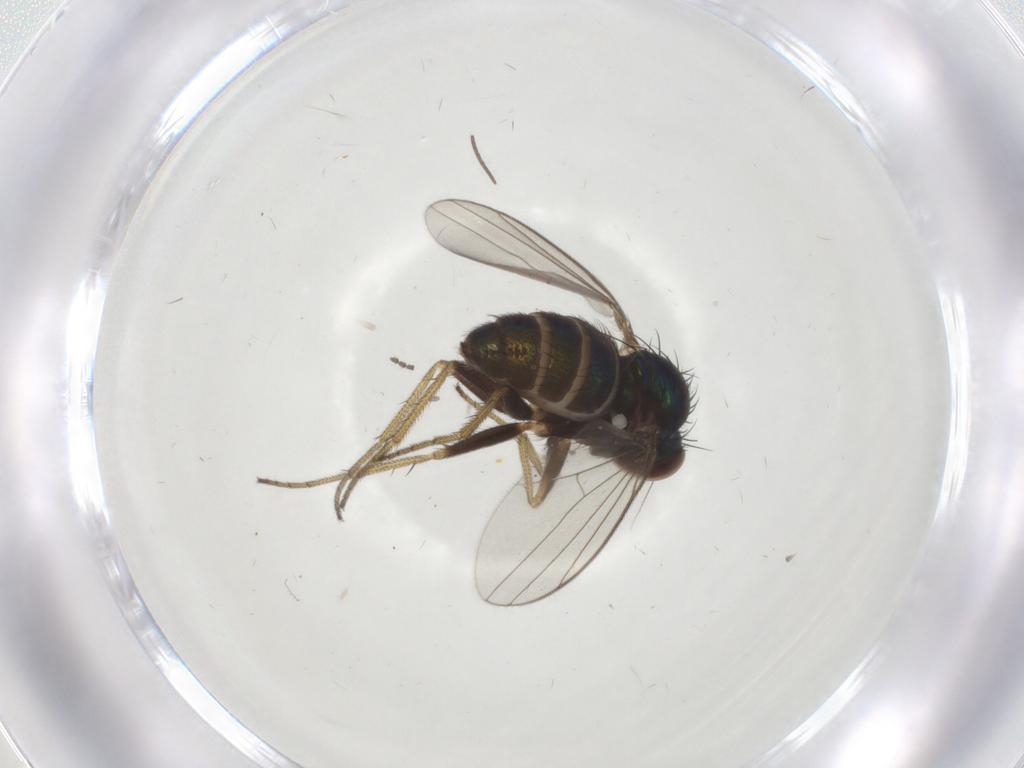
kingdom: Animalia
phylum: Arthropoda
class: Insecta
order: Diptera
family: Cecidomyiidae
